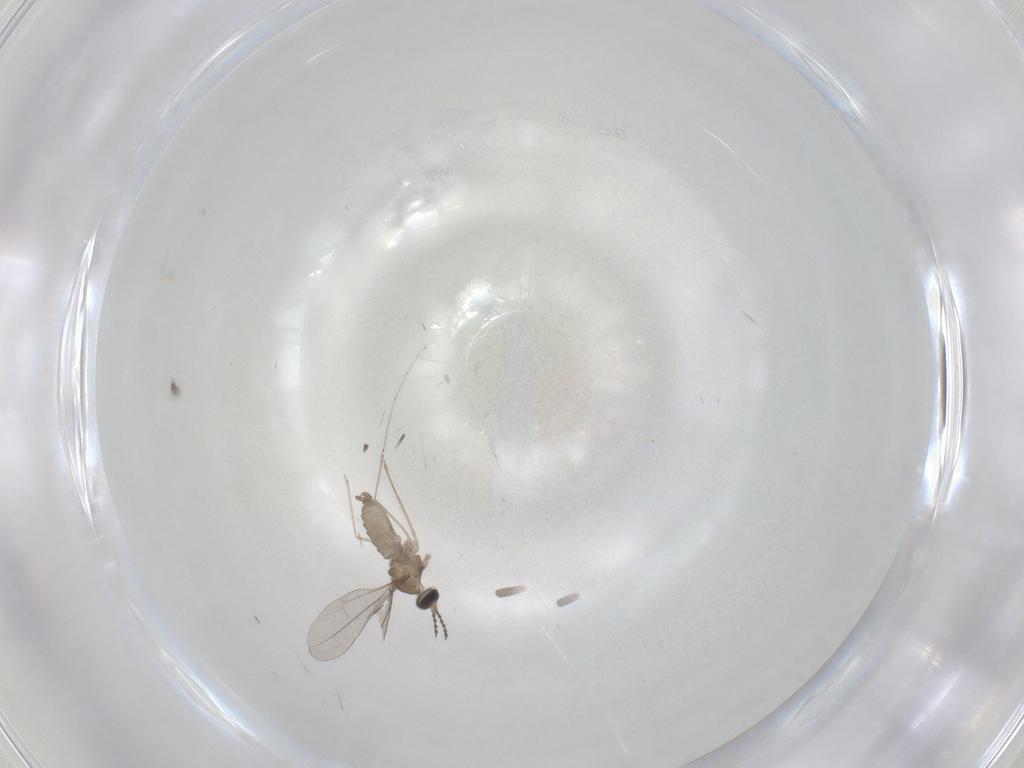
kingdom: Animalia
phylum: Arthropoda
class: Insecta
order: Diptera
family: Cecidomyiidae
